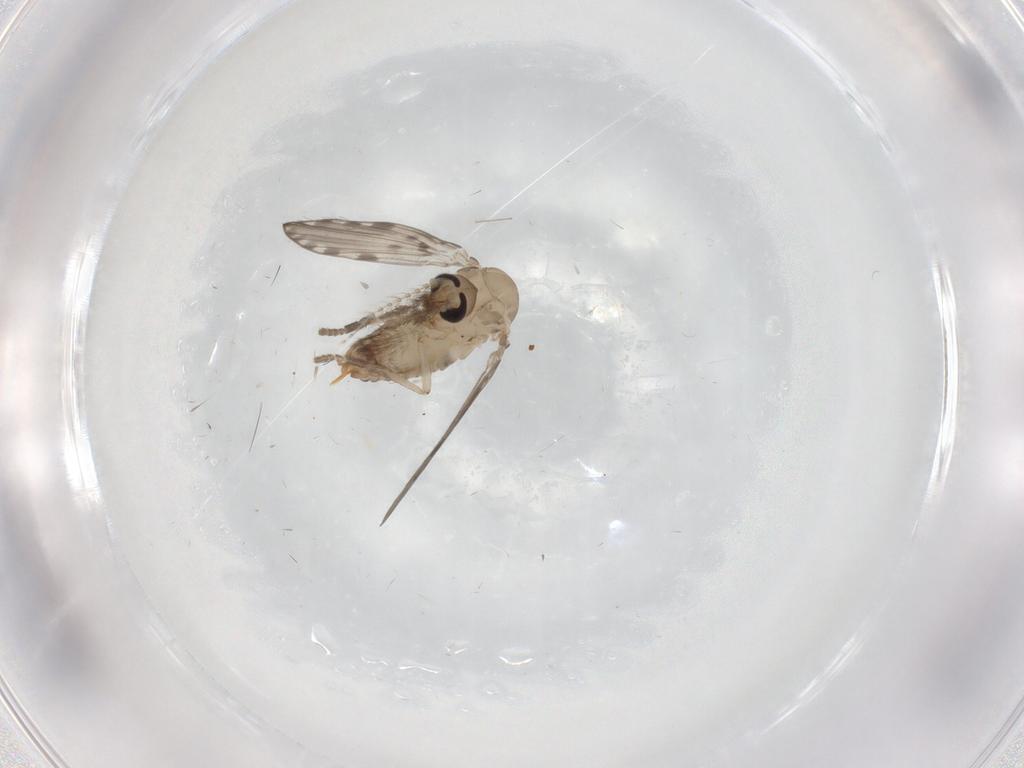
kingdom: Animalia
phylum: Arthropoda
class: Insecta
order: Diptera
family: Psychodidae
